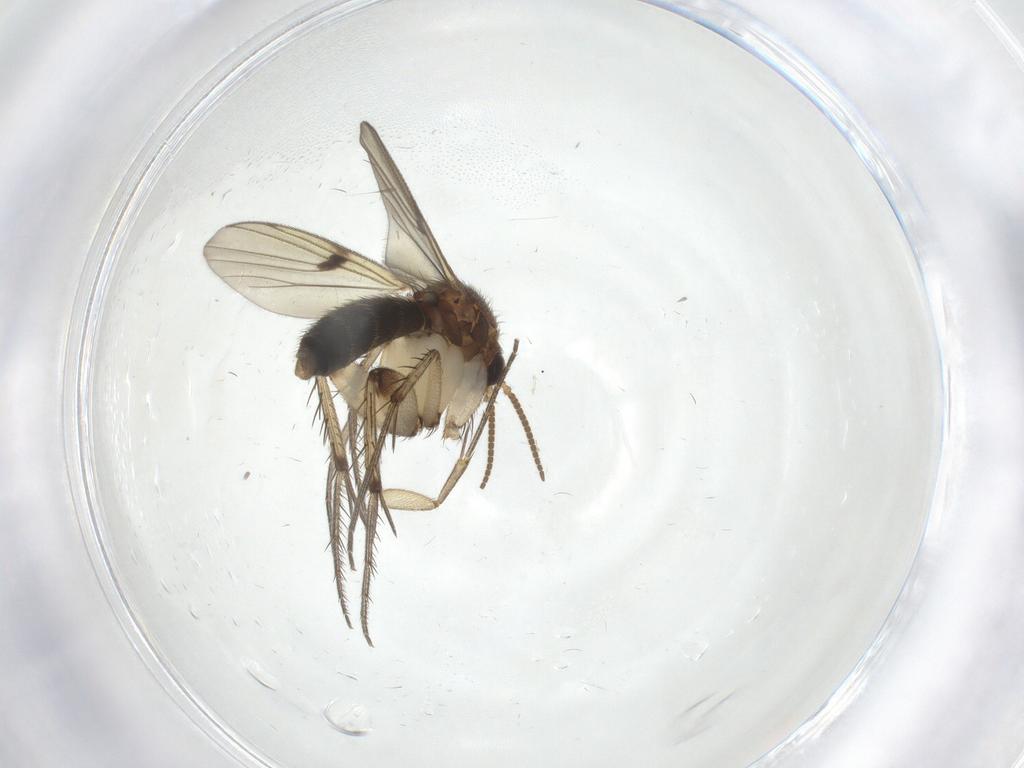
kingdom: Animalia
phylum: Arthropoda
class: Insecta
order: Diptera
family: Mycetophilidae
